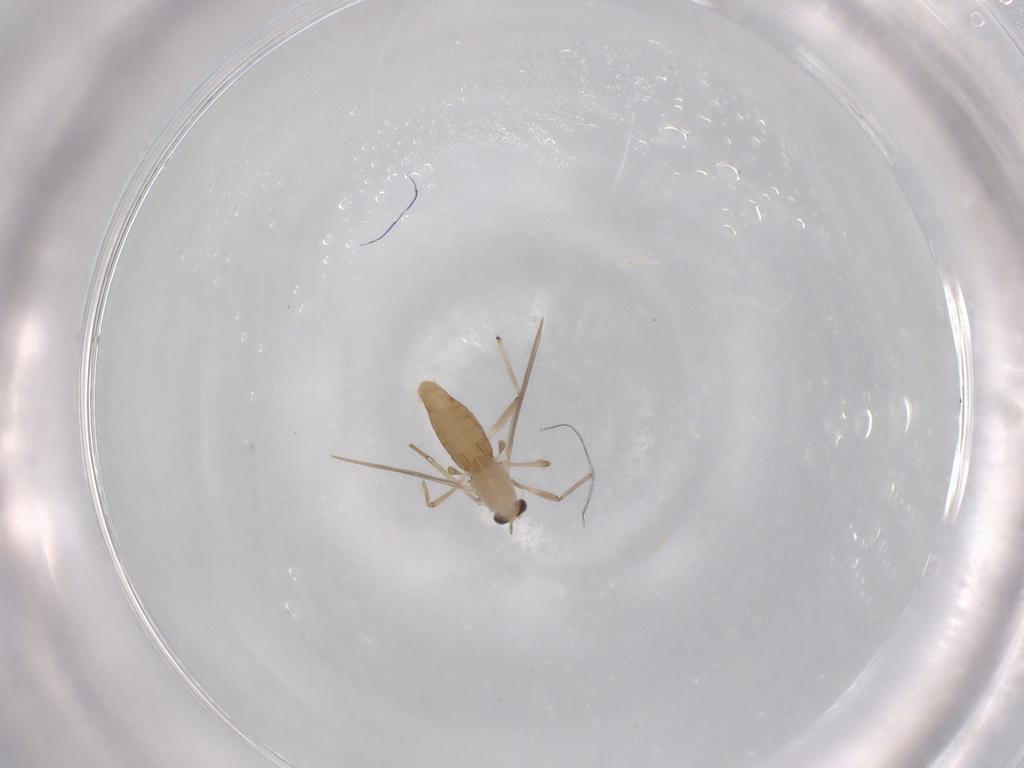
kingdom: Animalia
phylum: Arthropoda
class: Insecta
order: Diptera
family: Chironomidae
